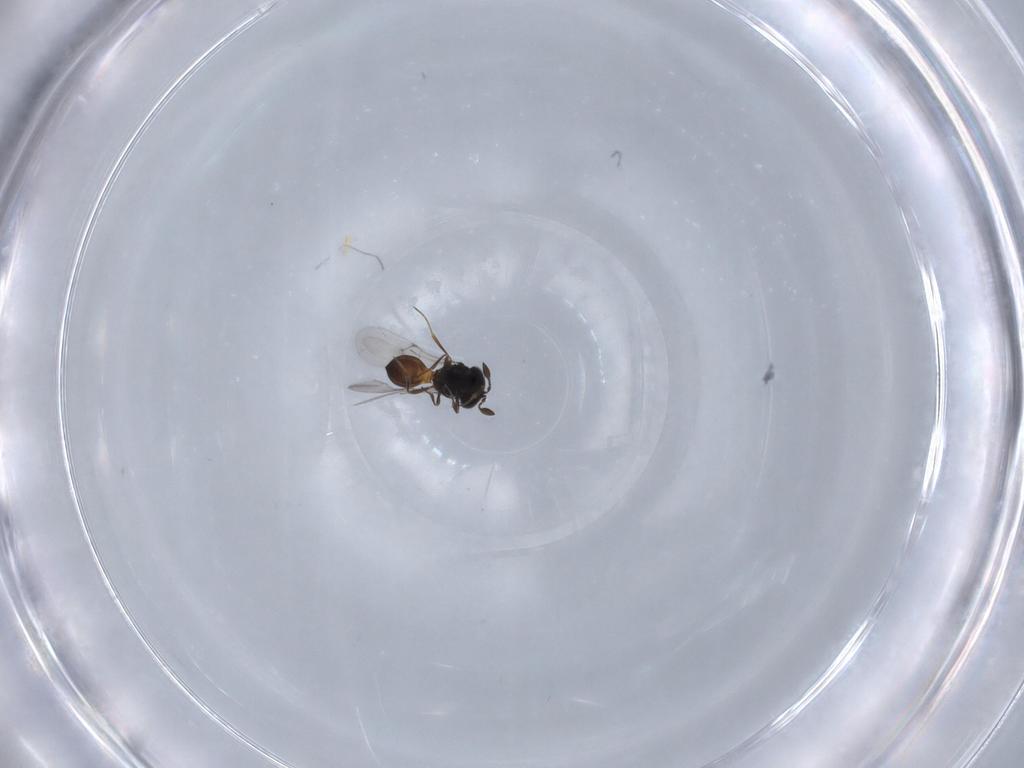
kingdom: Animalia
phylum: Arthropoda
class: Insecta
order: Hymenoptera
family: Scelionidae
